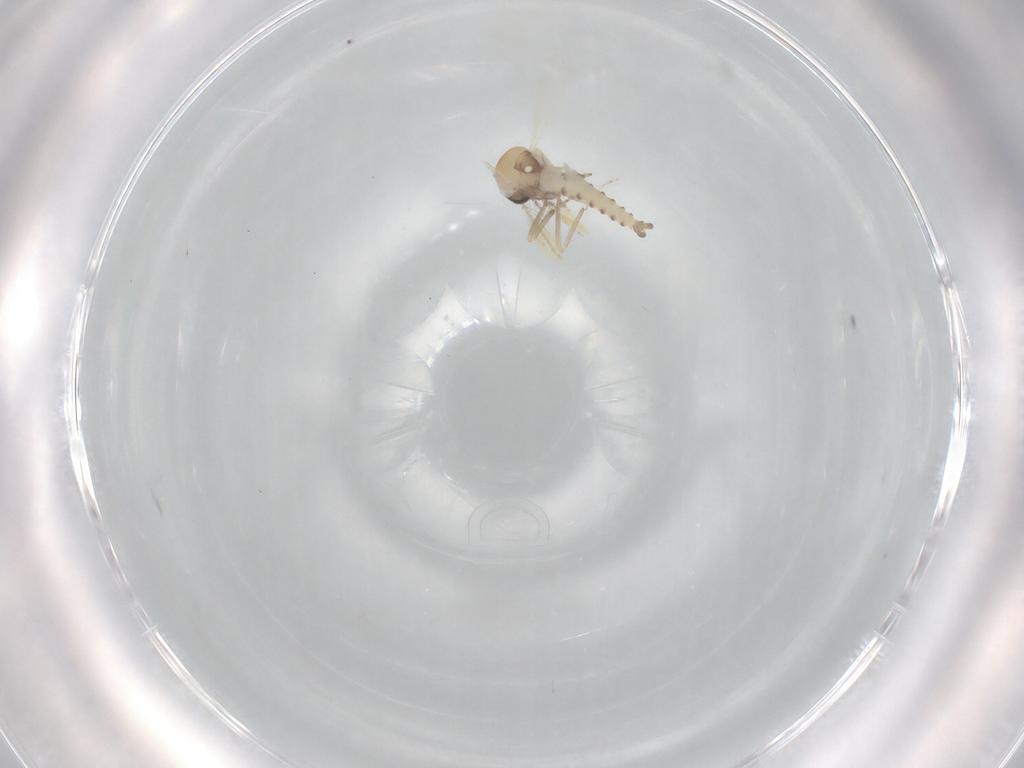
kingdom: Animalia
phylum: Arthropoda
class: Insecta
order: Diptera
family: Ceratopogonidae
